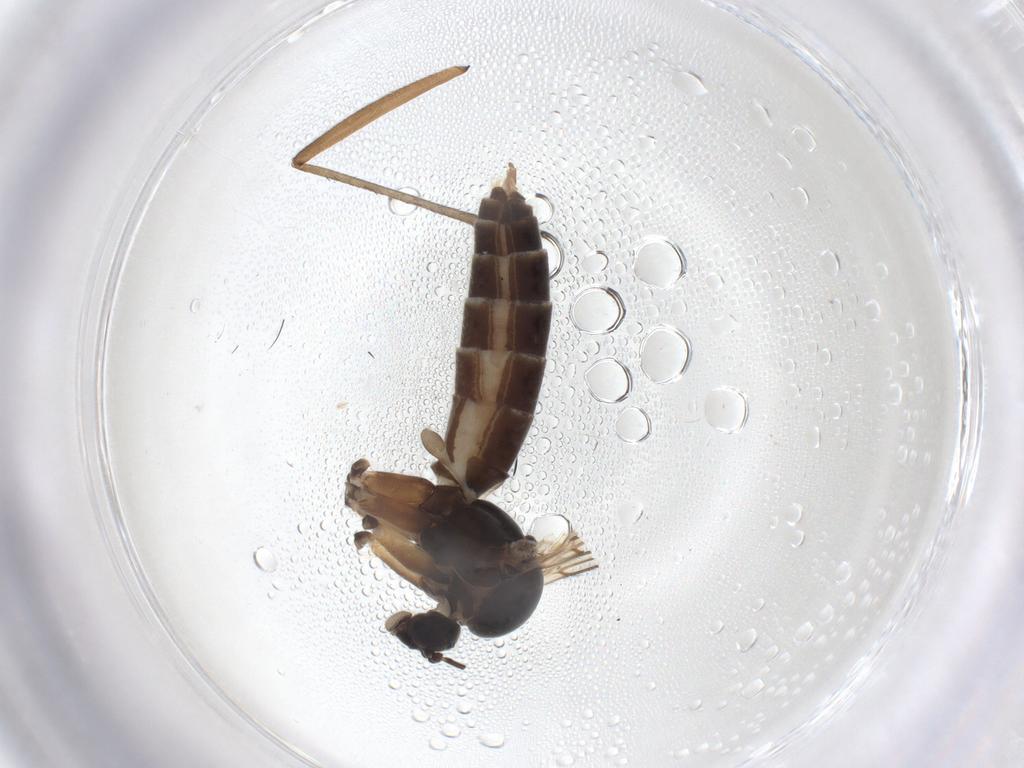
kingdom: Animalia
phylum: Arthropoda
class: Insecta
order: Diptera
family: Mycetophilidae
